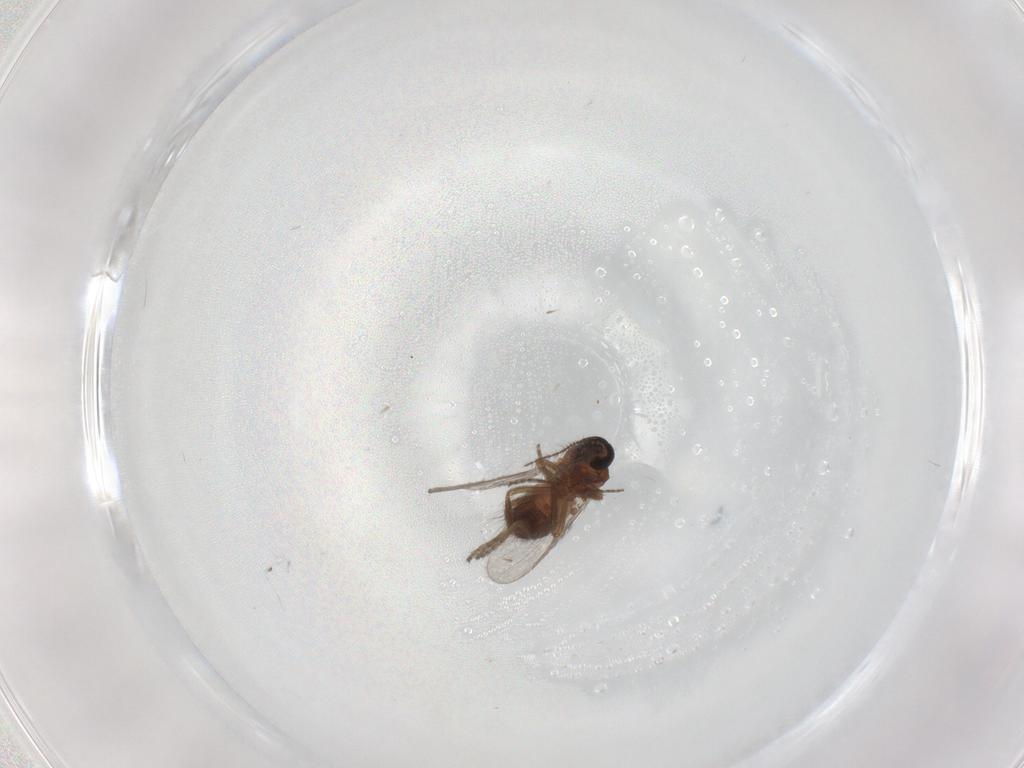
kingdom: Animalia
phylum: Arthropoda
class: Insecta
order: Diptera
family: Chironomidae
